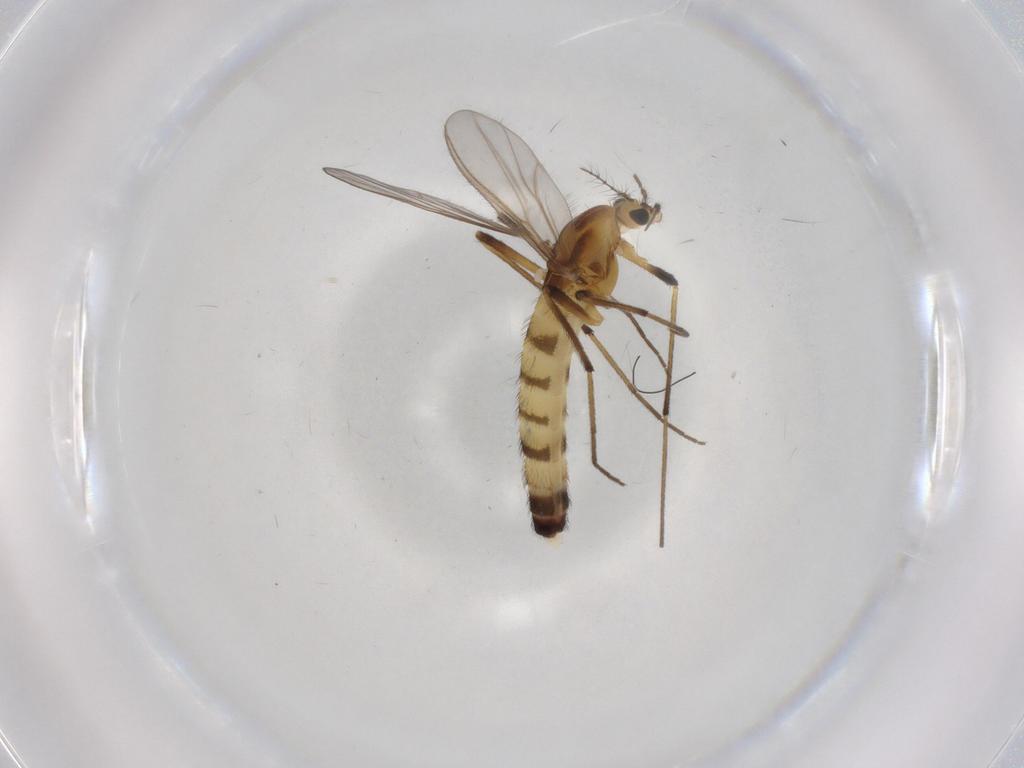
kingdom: Animalia
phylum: Arthropoda
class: Insecta
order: Diptera
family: Chironomidae
